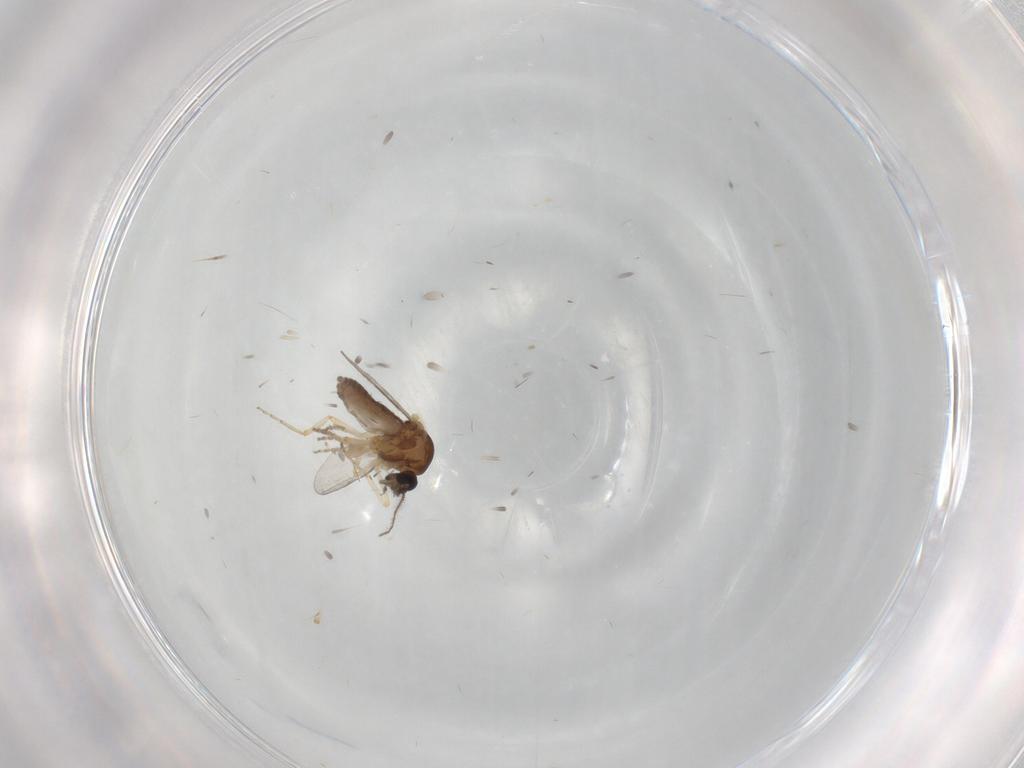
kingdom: Animalia
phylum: Arthropoda
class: Insecta
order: Diptera
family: Ceratopogonidae
